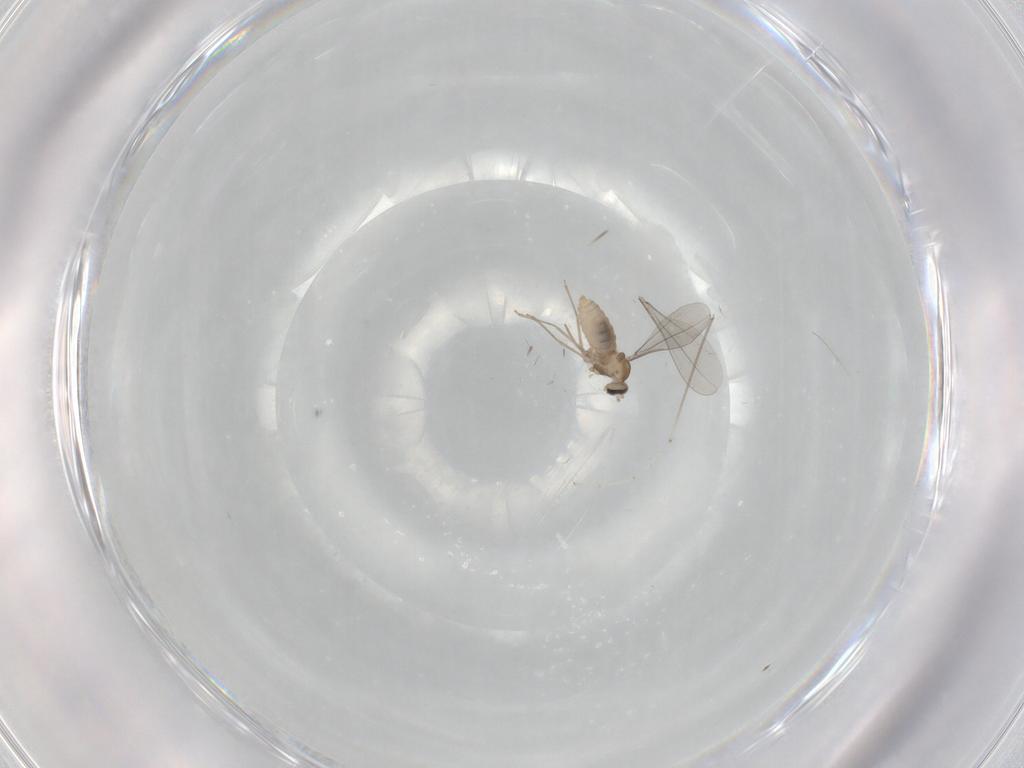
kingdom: Animalia
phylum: Arthropoda
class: Insecta
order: Diptera
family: Cecidomyiidae
